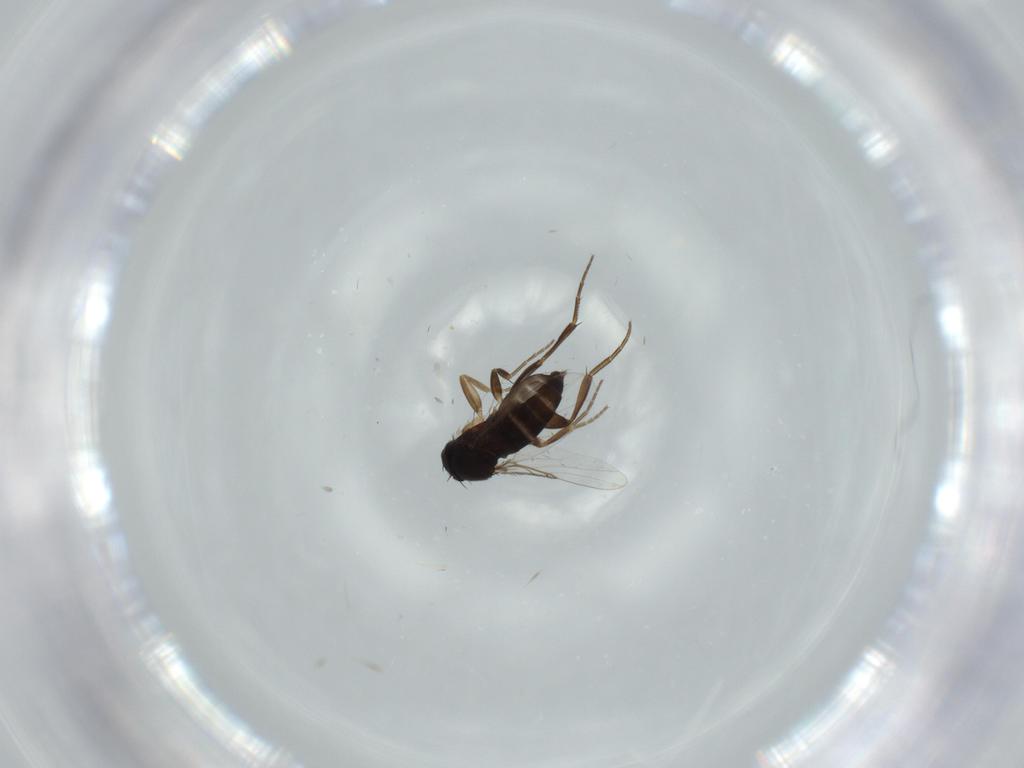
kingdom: Animalia
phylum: Arthropoda
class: Insecta
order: Diptera
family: Phoridae
